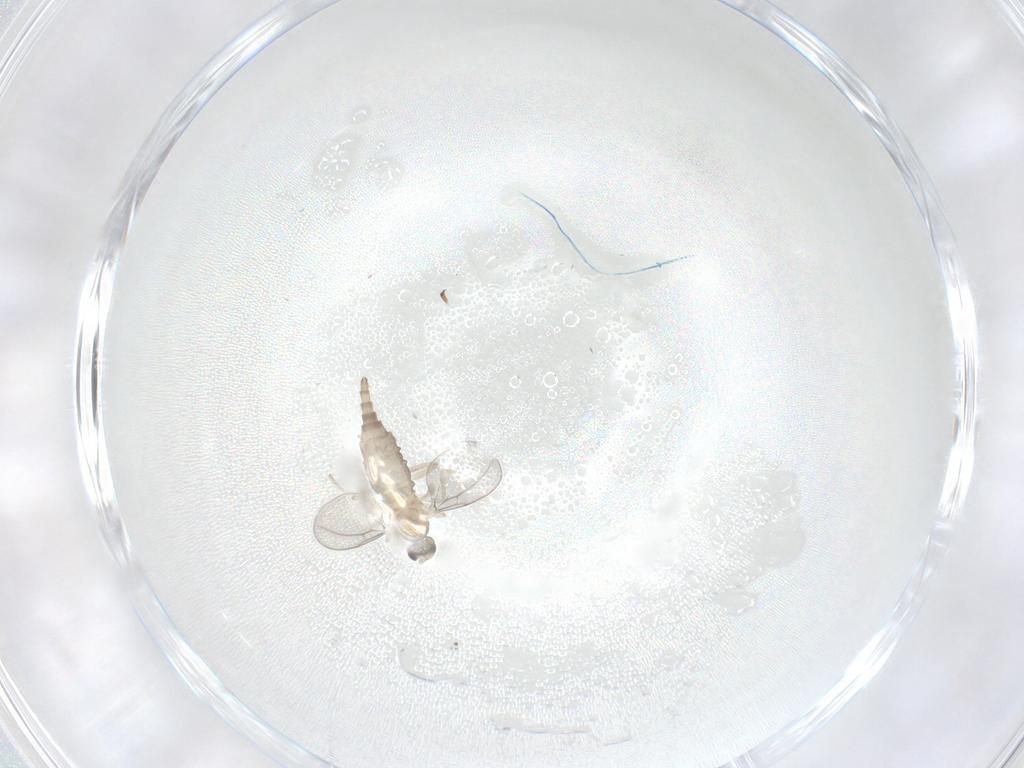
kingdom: Animalia
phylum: Arthropoda
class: Insecta
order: Diptera
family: Cecidomyiidae
